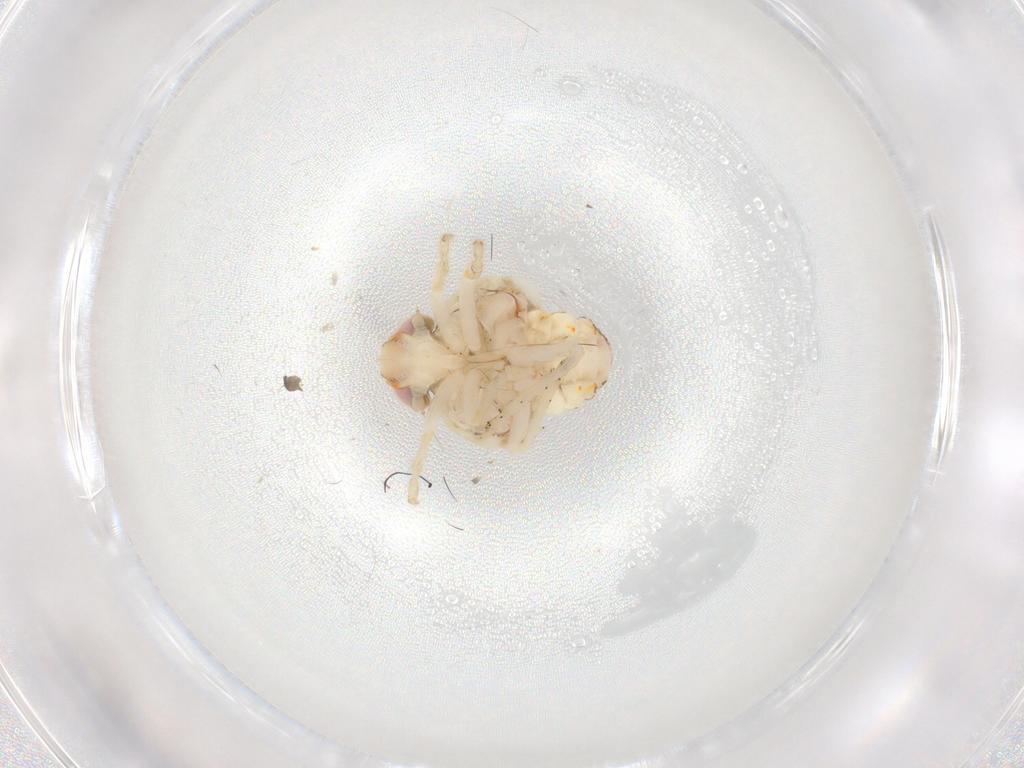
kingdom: Animalia
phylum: Arthropoda
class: Insecta
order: Hemiptera
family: Nogodinidae
